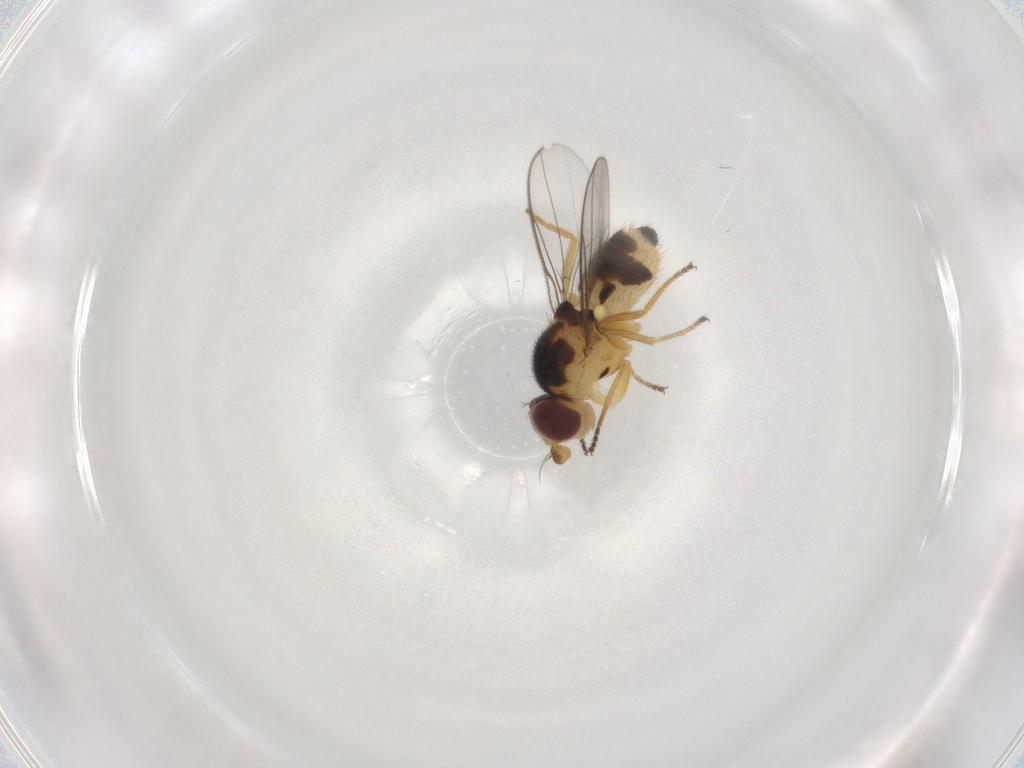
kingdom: Animalia
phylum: Arthropoda
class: Insecta
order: Diptera
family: Chloropidae
